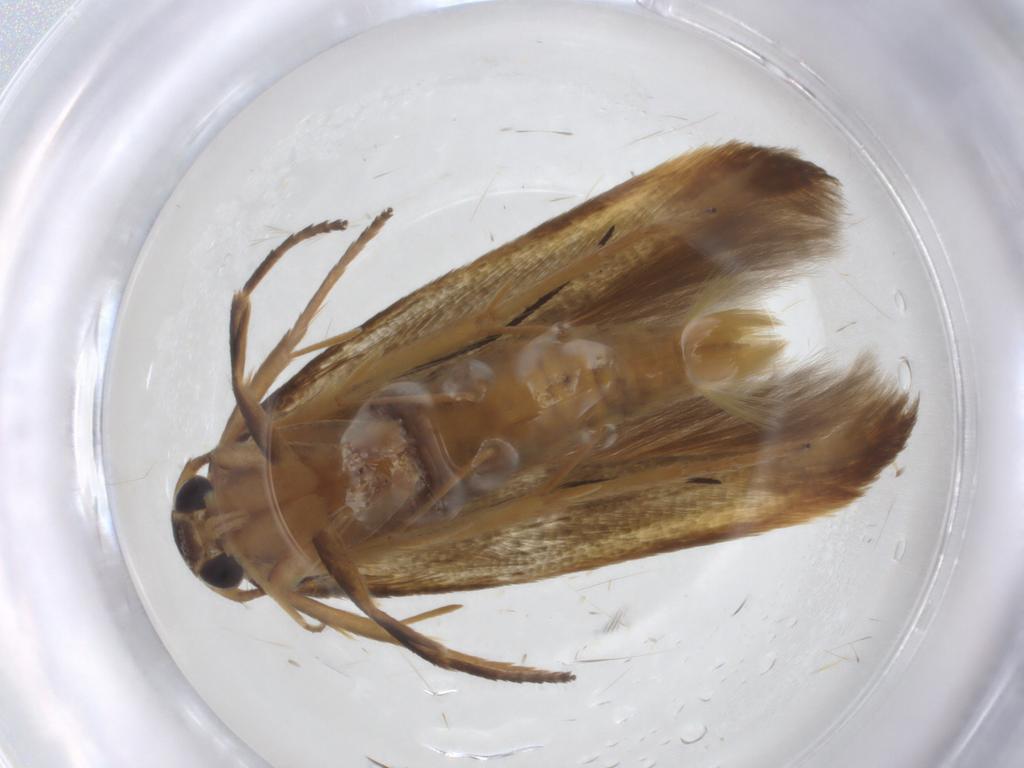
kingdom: Animalia
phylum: Arthropoda
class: Insecta
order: Lepidoptera
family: Stathmopodidae
